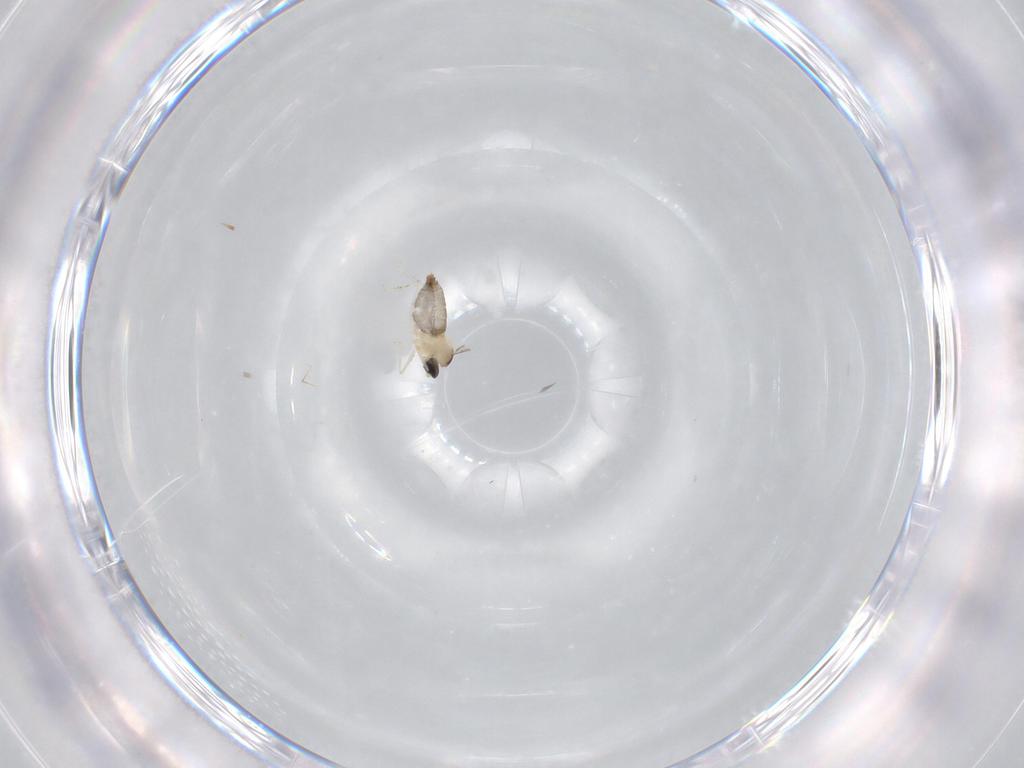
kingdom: Animalia
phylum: Arthropoda
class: Insecta
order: Diptera
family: Cecidomyiidae
